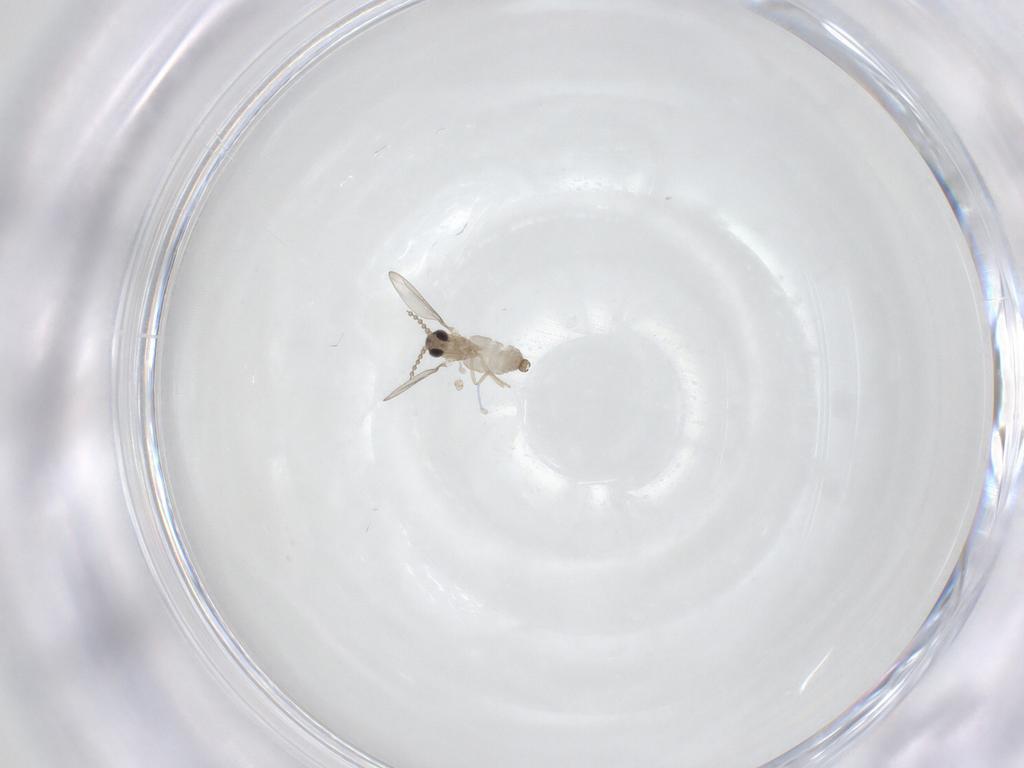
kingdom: Animalia
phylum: Arthropoda
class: Insecta
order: Diptera
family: Cecidomyiidae
